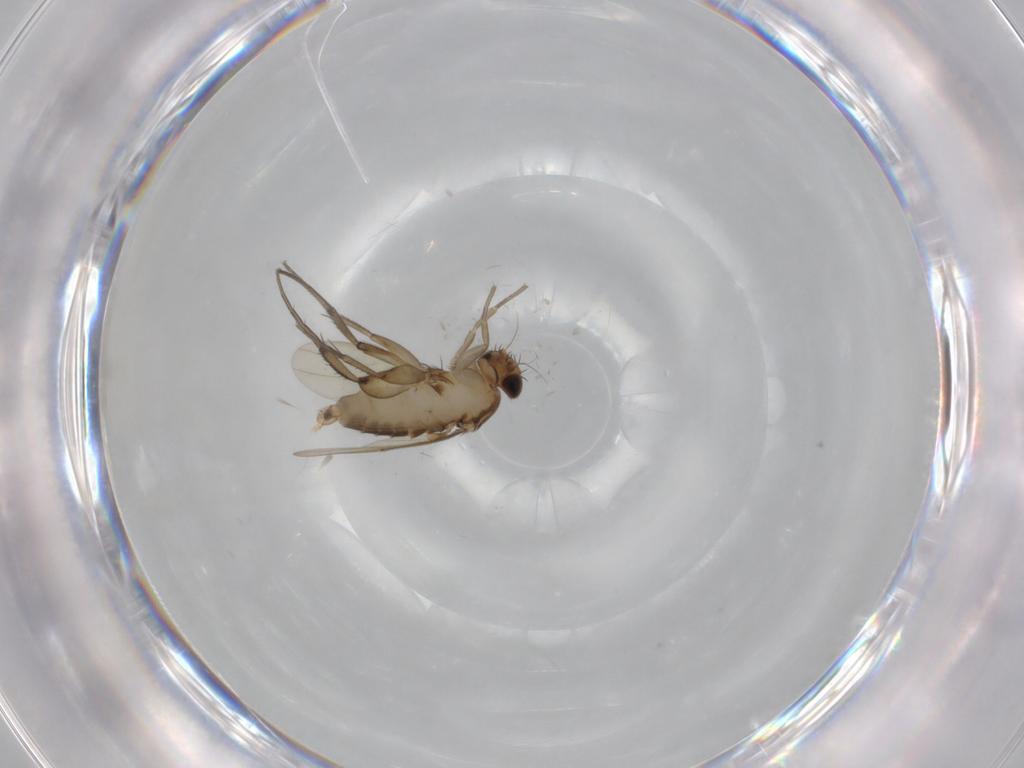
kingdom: Animalia
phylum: Arthropoda
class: Insecta
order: Diptera
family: Phoridae
